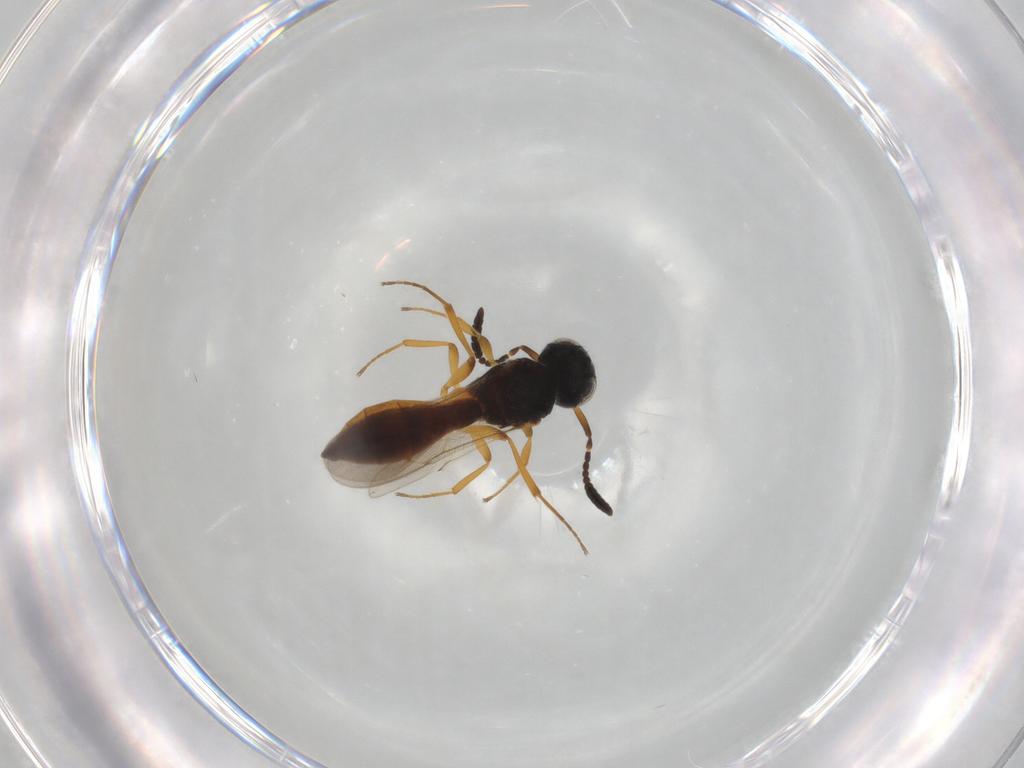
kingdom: Animalia
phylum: Arthropoda
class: Insecta
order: Hymenoptera
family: Scelionidae
